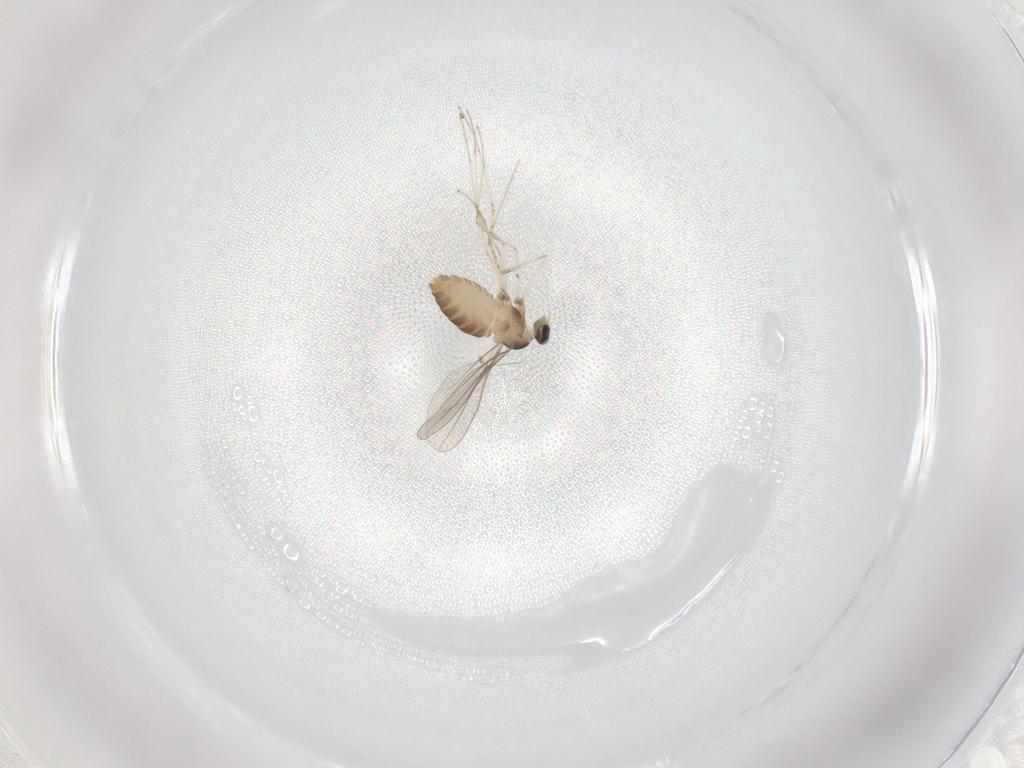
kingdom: Animalia
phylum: Arthropoda
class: Insecta
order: Diptera
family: Cecidomyiidae
